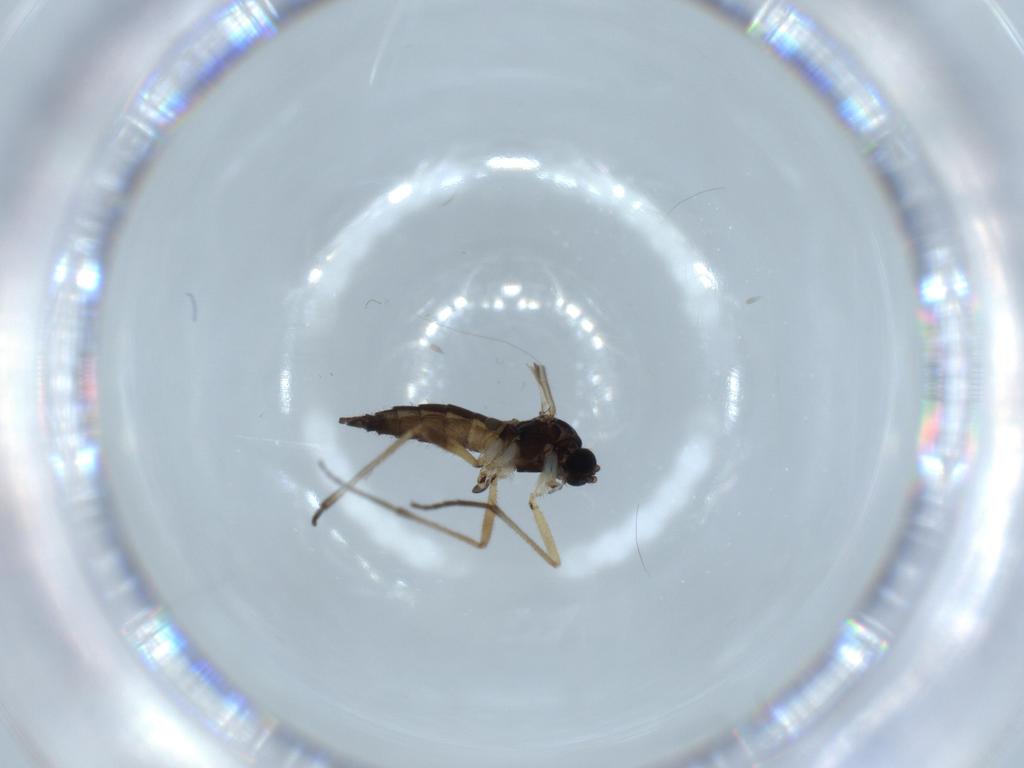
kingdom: Animalia
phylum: Arthropoda
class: Insecta
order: Diptera
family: Sciaridae
